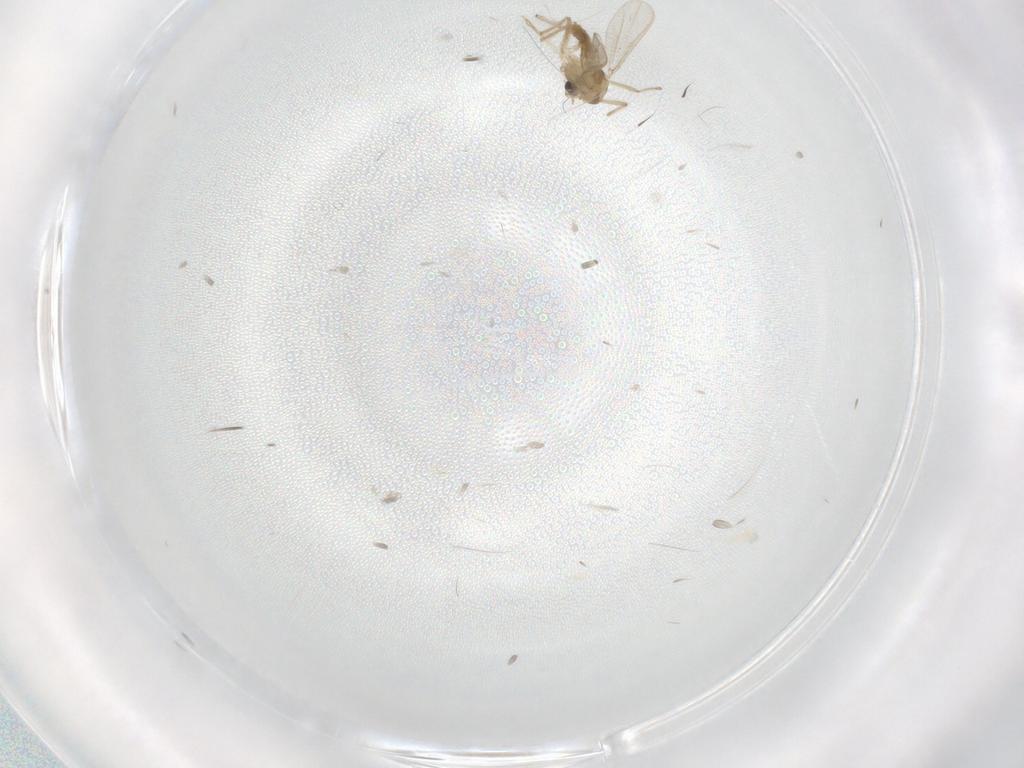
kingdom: Animalia
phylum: Arthropoda
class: Insecta
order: Diptera
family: Chironomidae
